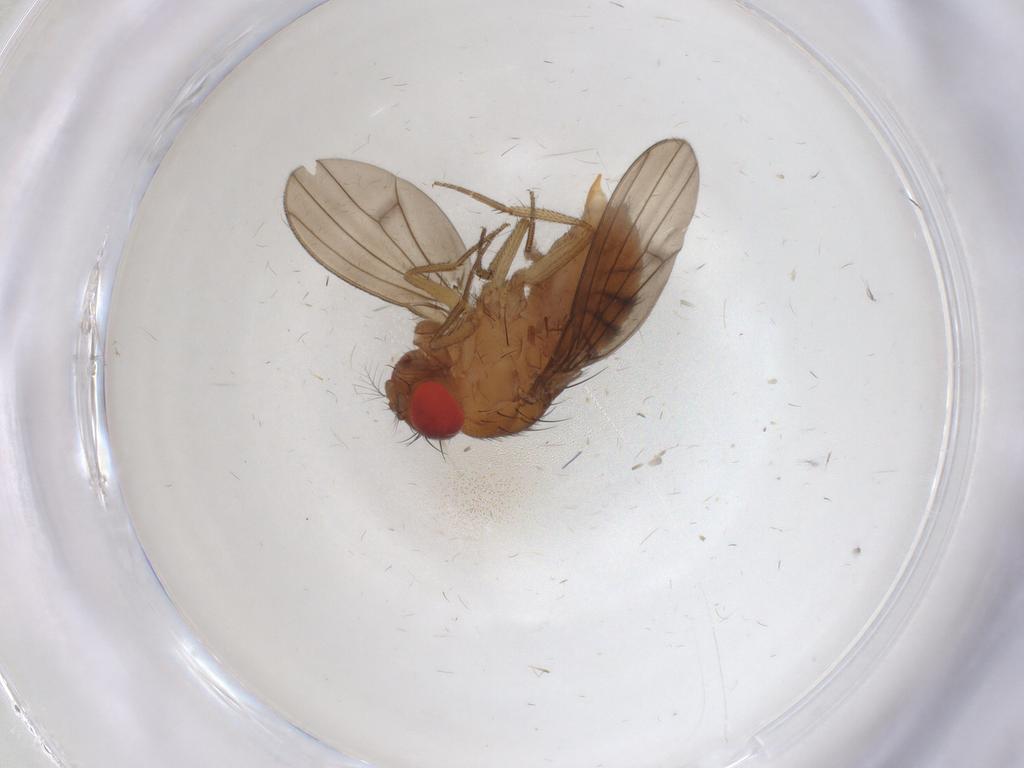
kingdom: Animalia
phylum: Arthropoda
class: Insecta
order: Diptera
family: Drosophilidae
